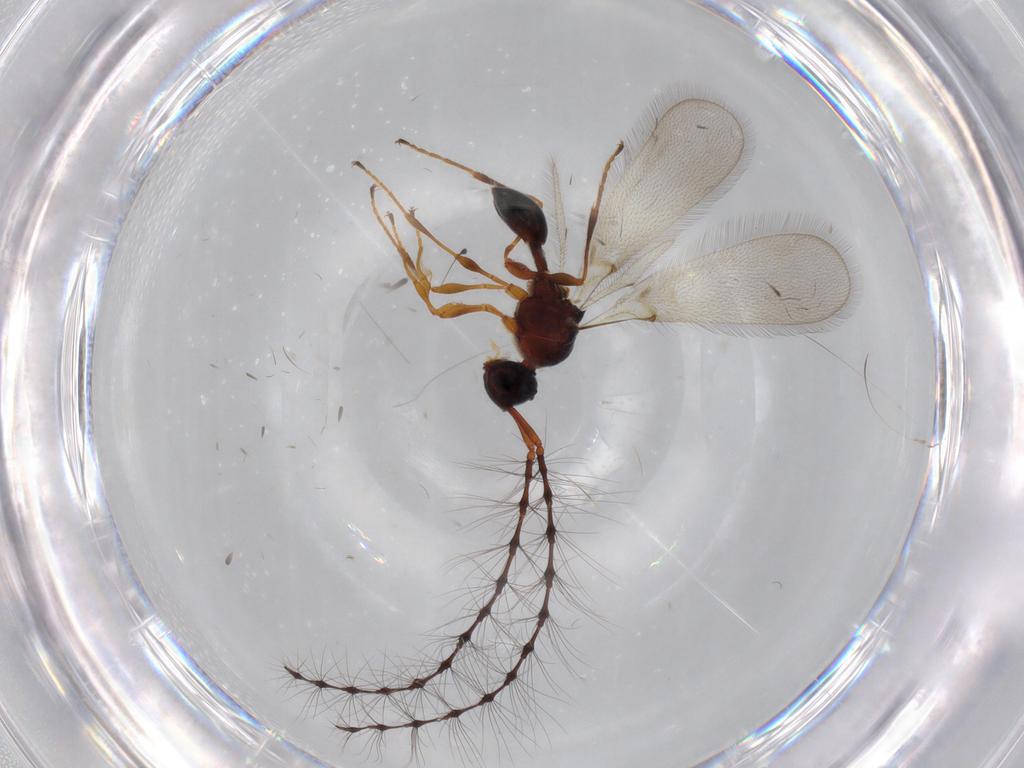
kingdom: Animalia
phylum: Arthropoda
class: Insecta
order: Hymenoptera
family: Diapriidae
